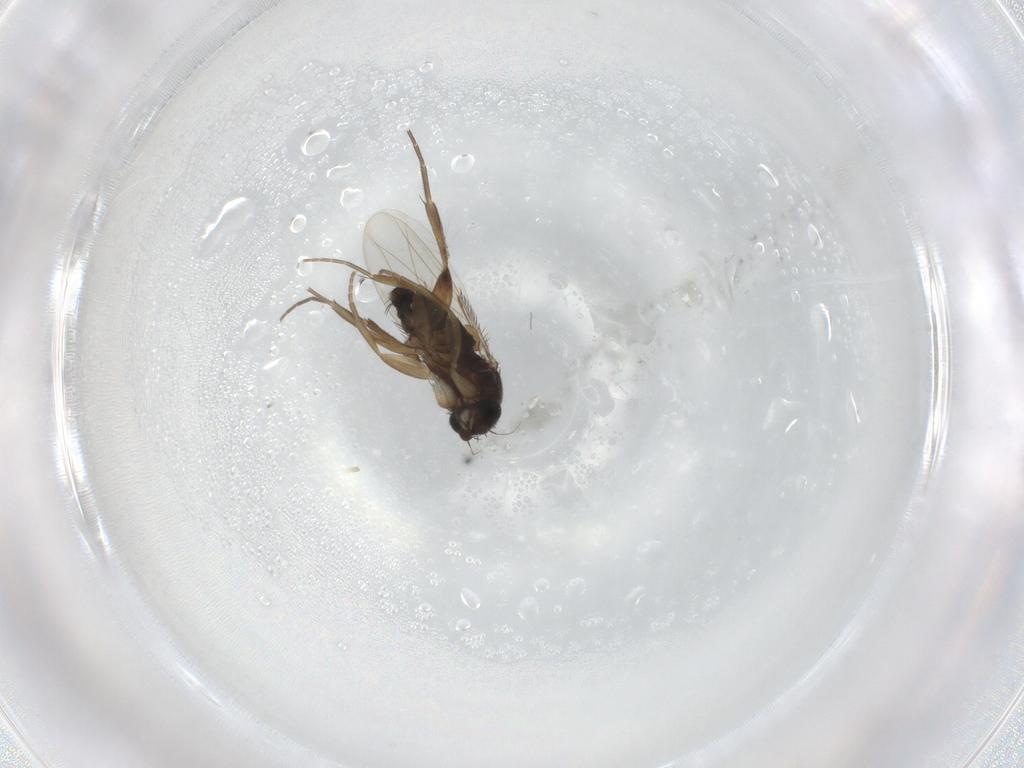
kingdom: Animalia
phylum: Arthropoda
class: Insecta
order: Diptera
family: Phoridae
